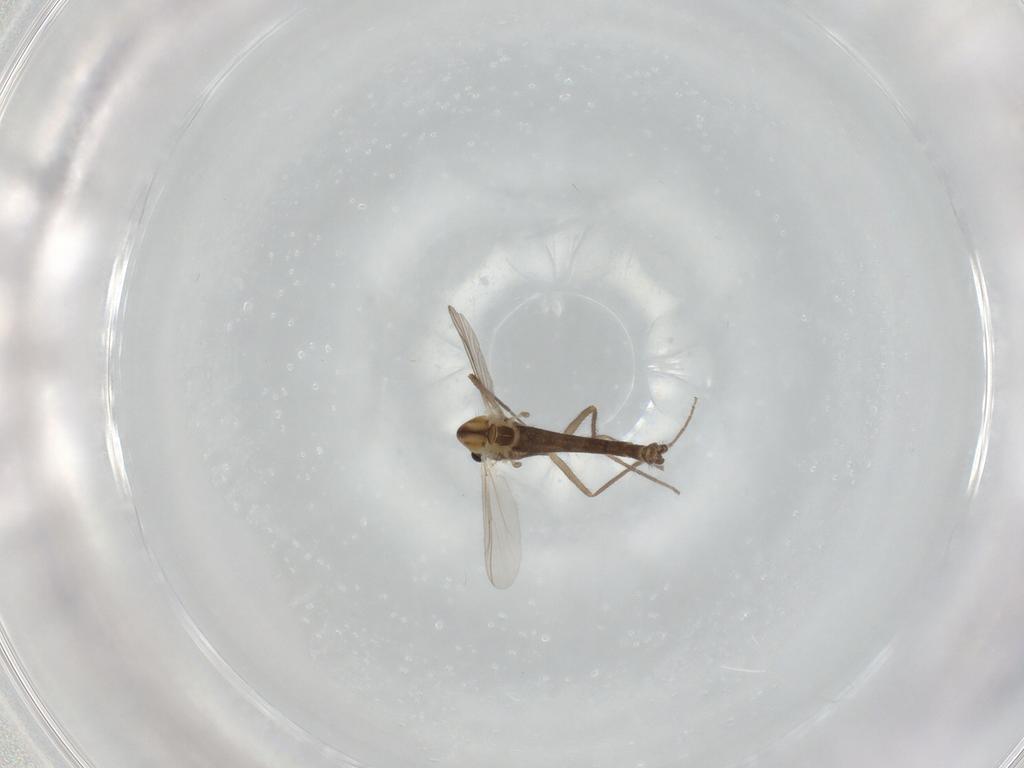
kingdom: Animalia
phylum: Arthropoda
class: Insecta
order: Diptera
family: Chironomidae
